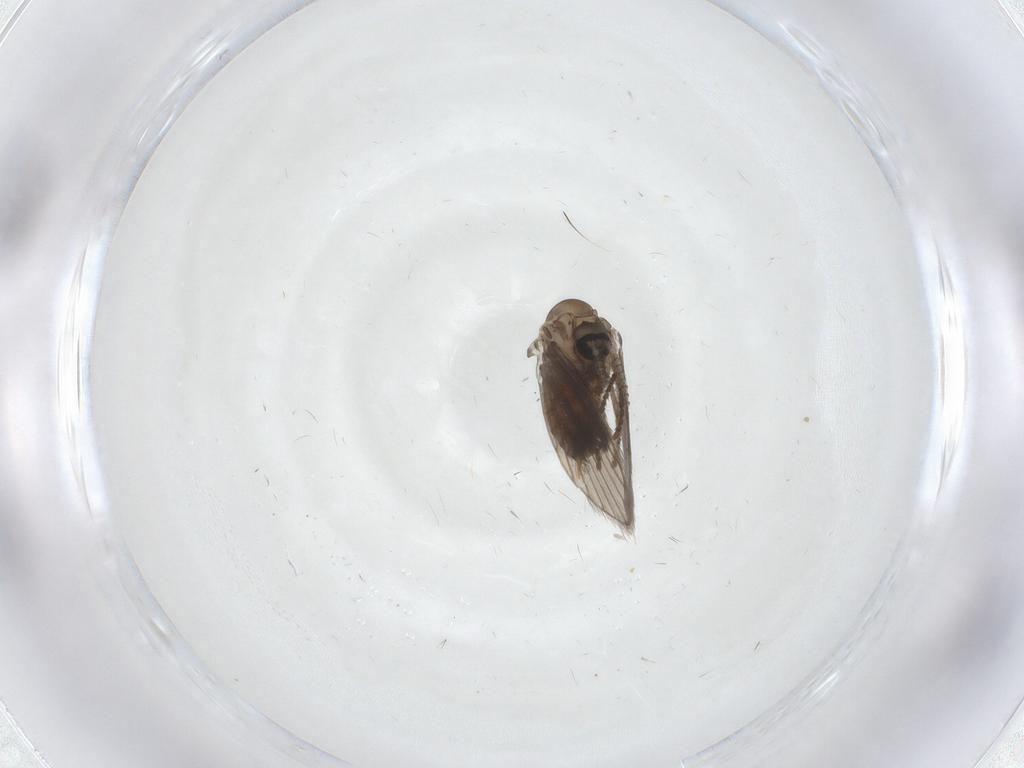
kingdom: Animalia
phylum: Arthropoda
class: Insecta
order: Diptera
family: Psychodidae
